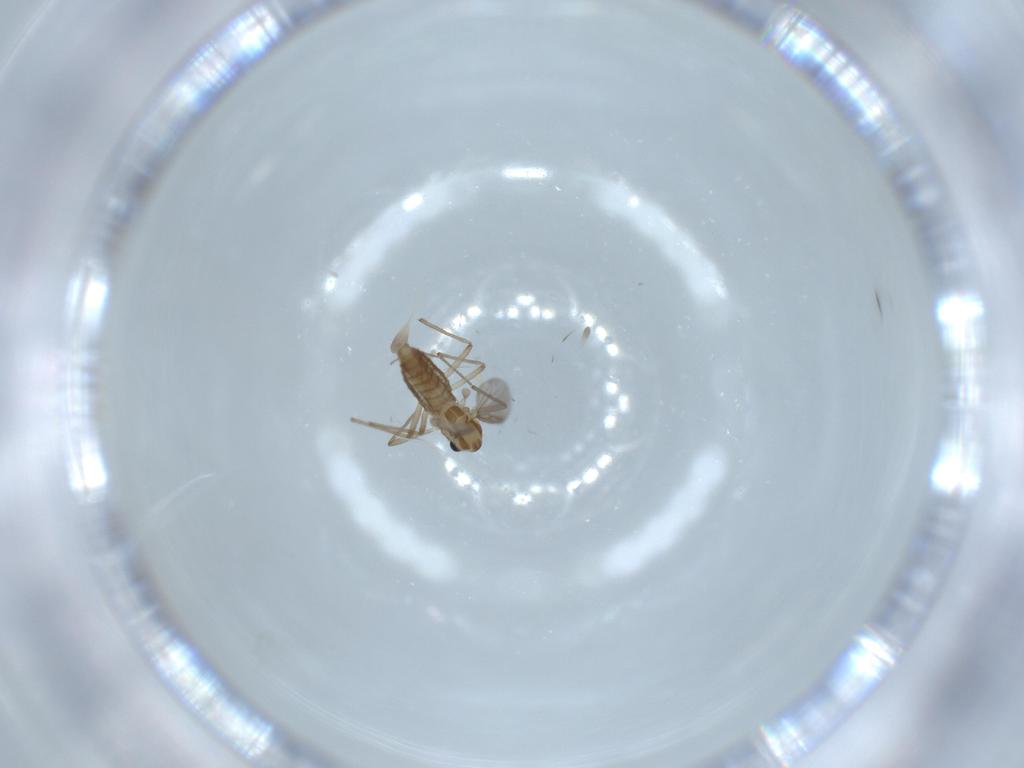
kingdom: Animalia
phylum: Arthropoda
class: Insecta
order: Diptera
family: Chironomidae
